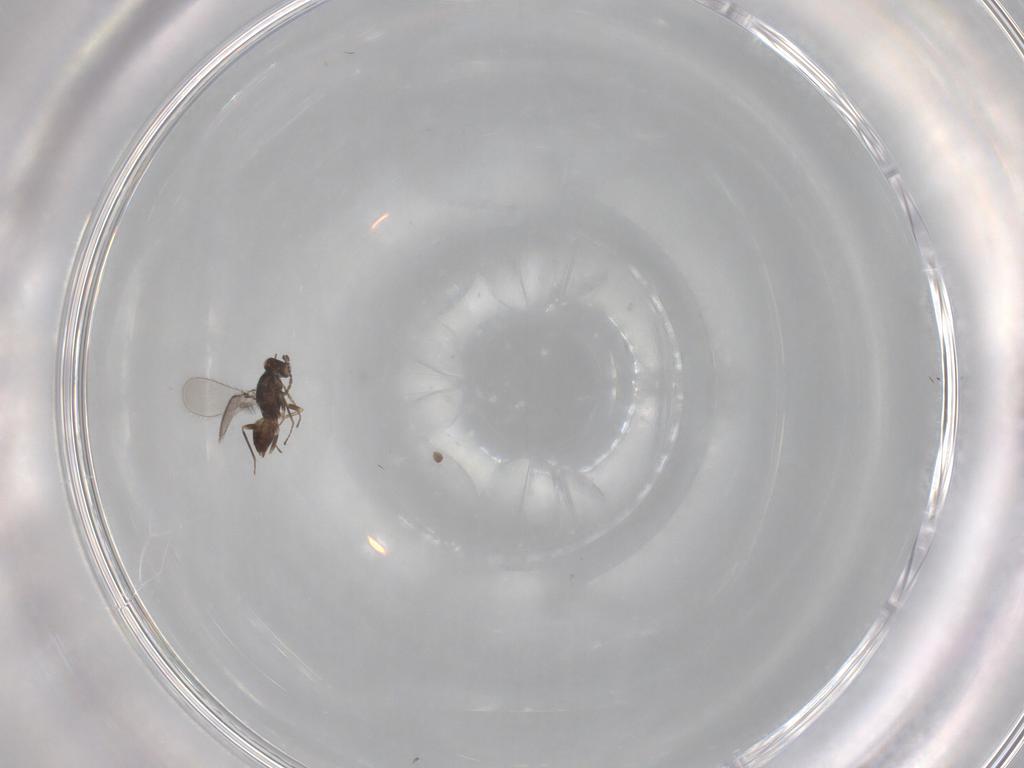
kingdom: Animalia
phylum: Arthropoda
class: Insecta
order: Hymenoptera
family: Mymaridae
